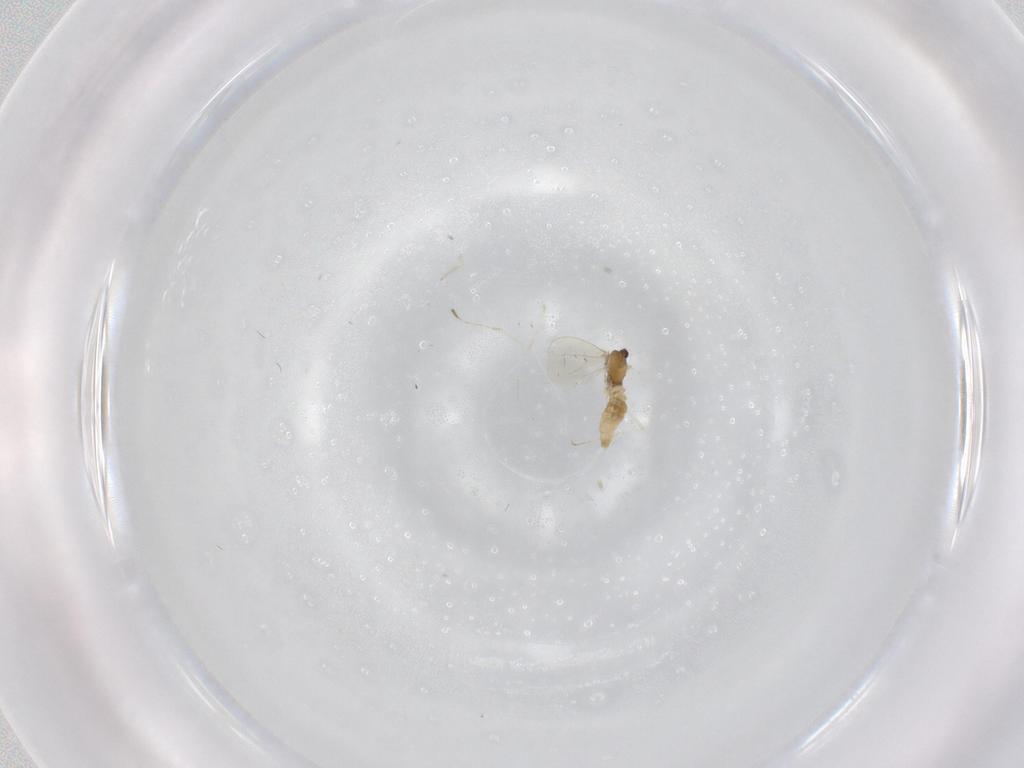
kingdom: Animalia
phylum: Arthropoda
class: Insecta
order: Diptera
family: Cecidomyiidae
